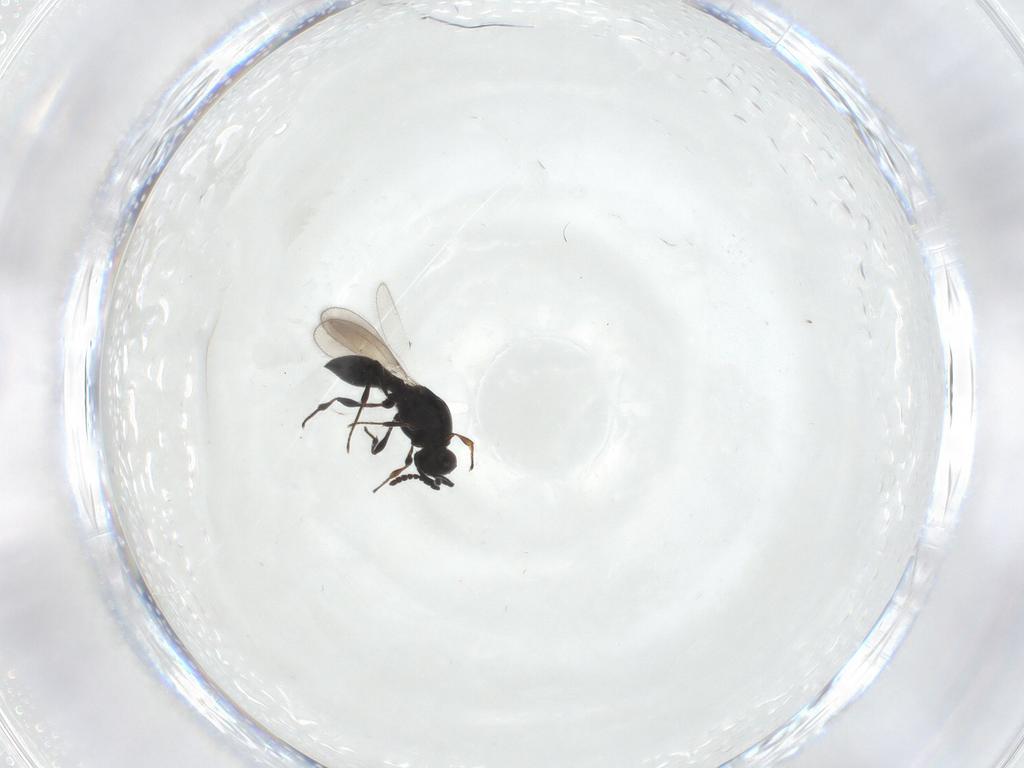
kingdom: Animalia
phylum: Arthropoda
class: Insecta
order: Hymenoptera
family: Platygastridae
